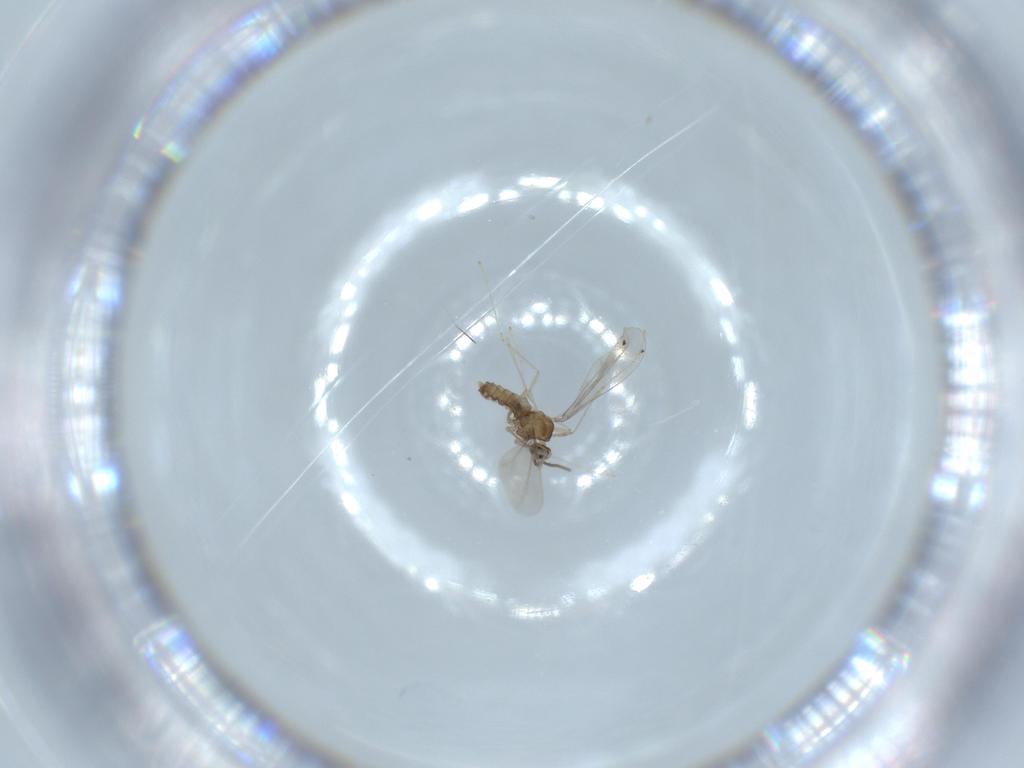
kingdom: Animalia
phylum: Arthropoda
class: Insecta
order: Diptera
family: Cecidomyiidae
